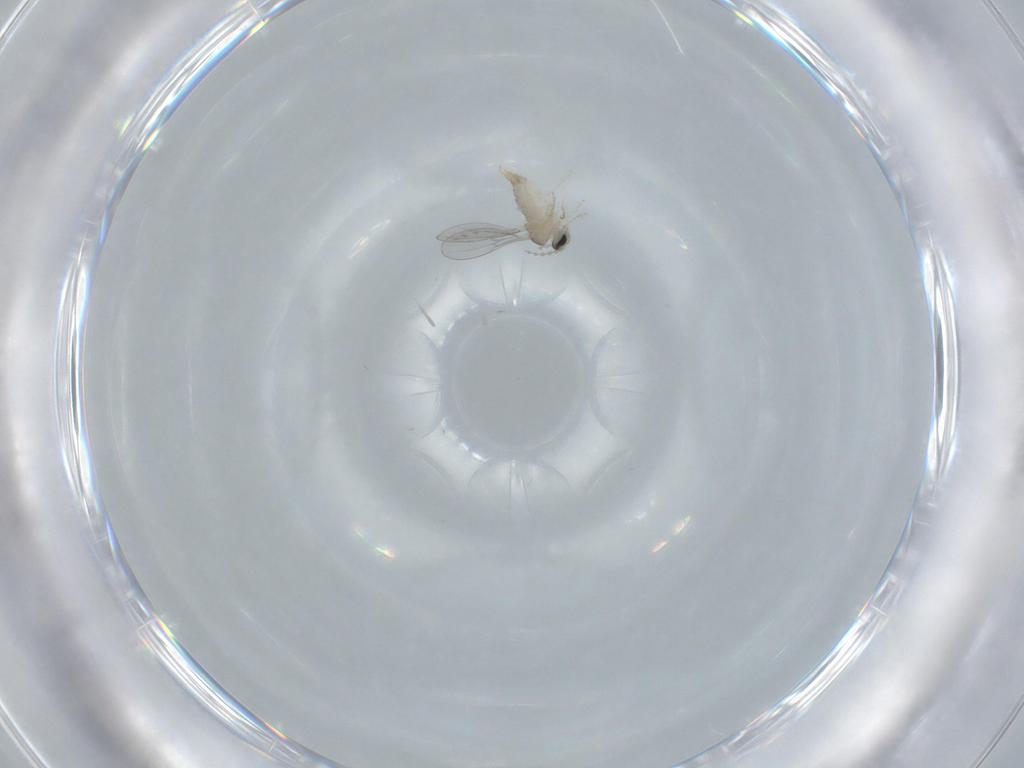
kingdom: Animalia
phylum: Arthropoda
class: Insecta
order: Diptera
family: Cecidomyiidae
